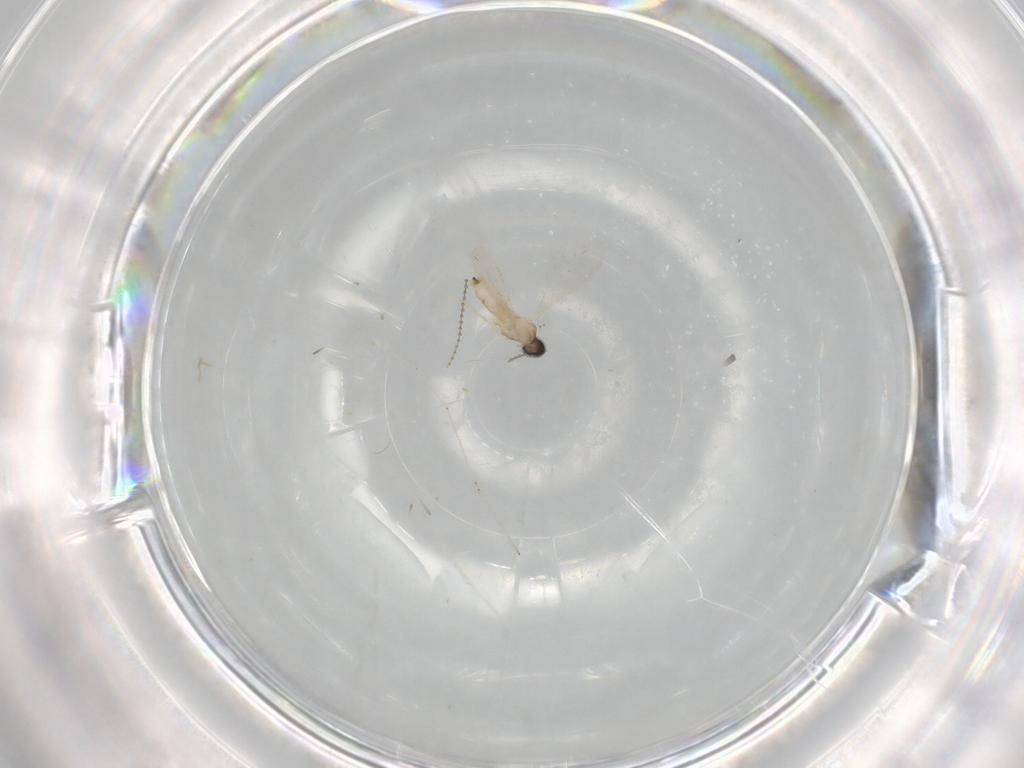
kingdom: Animalia
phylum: Arthropoda
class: Insecta
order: Diptera
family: Cecidomyiidae
